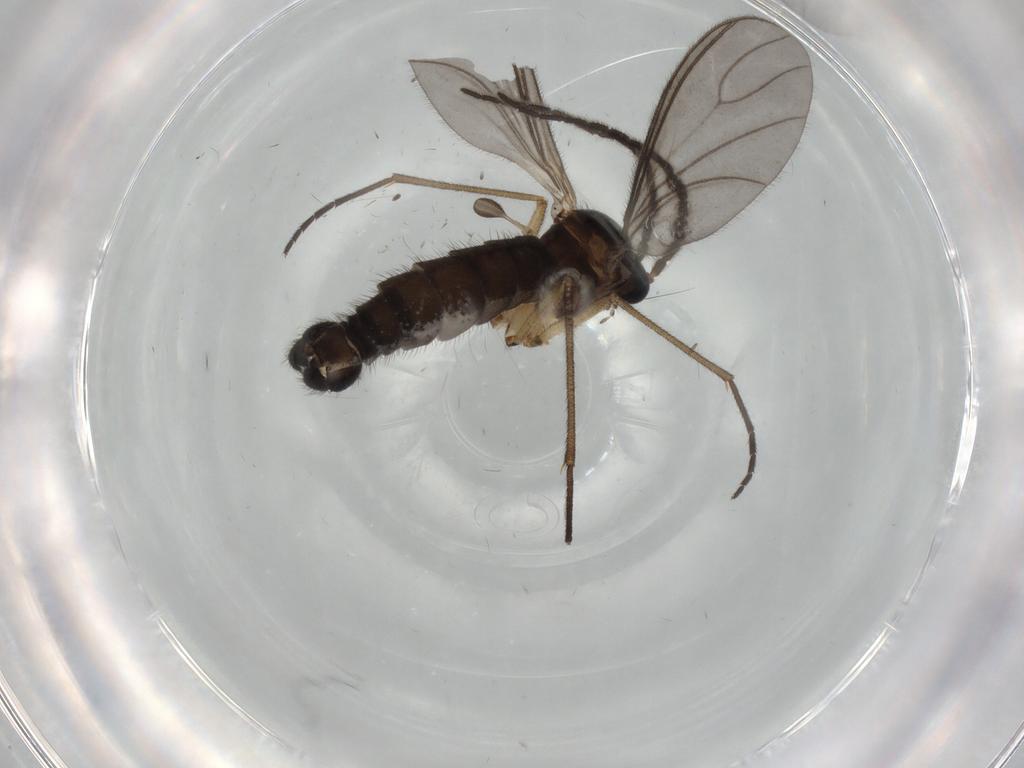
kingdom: Animalia
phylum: Arthropoda
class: Insecta
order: Diptera
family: Sciaridae
